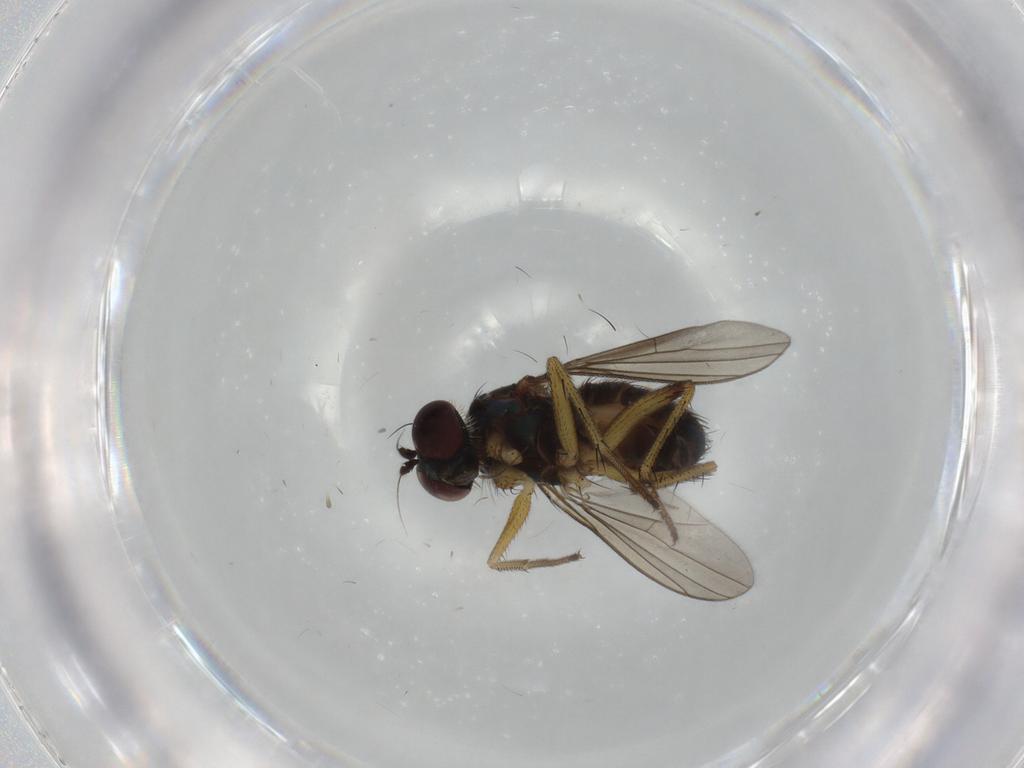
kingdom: Animalia
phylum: Arthropoda
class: Insecta
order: Diptera
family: Dolichopodidae
